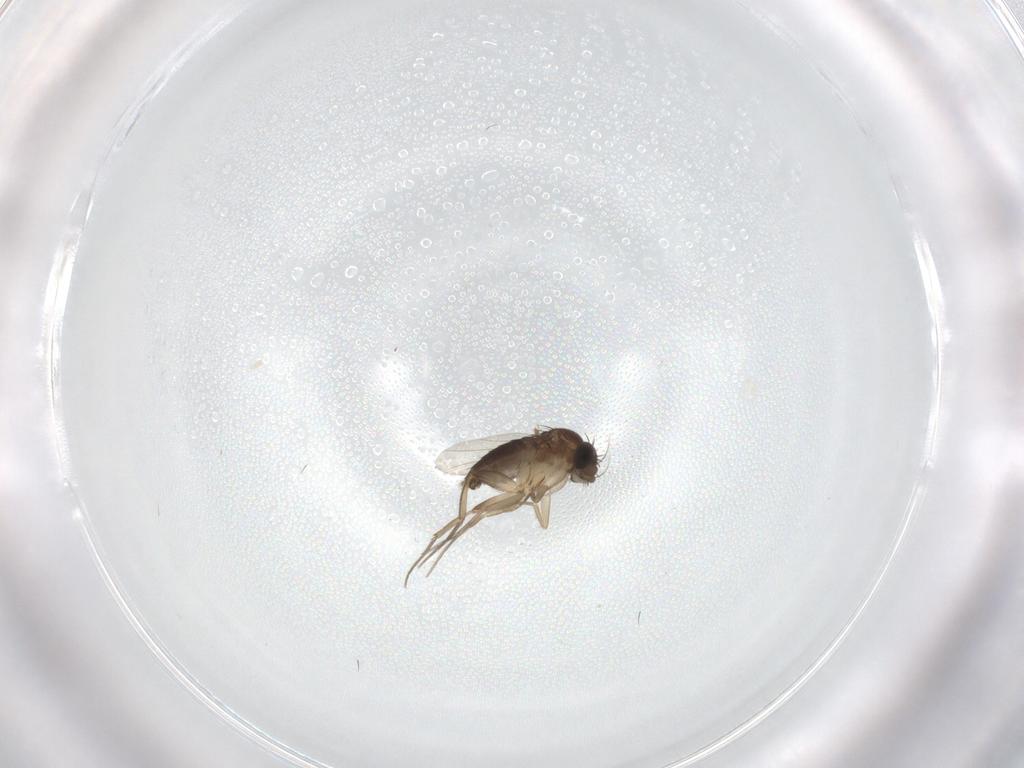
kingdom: Animalia
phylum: Arthropoda
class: Insecta
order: Diptera
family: Phoridae
